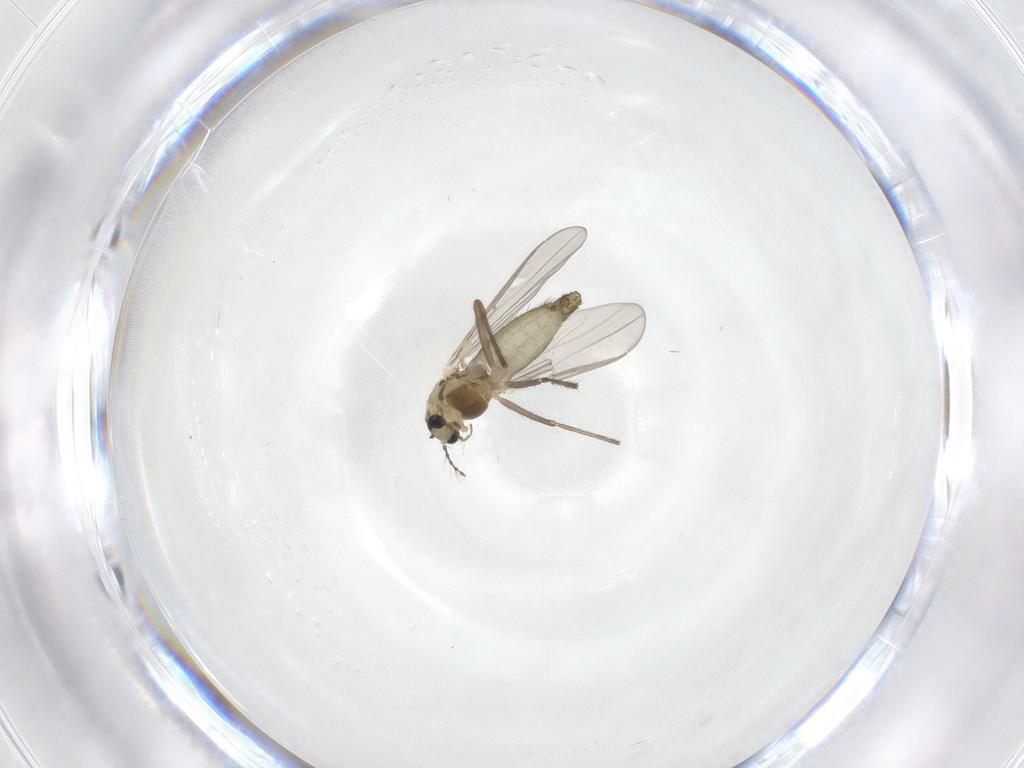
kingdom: Animalia
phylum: Arthropoda
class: Insecta
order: Diptera
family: Chironomidae
